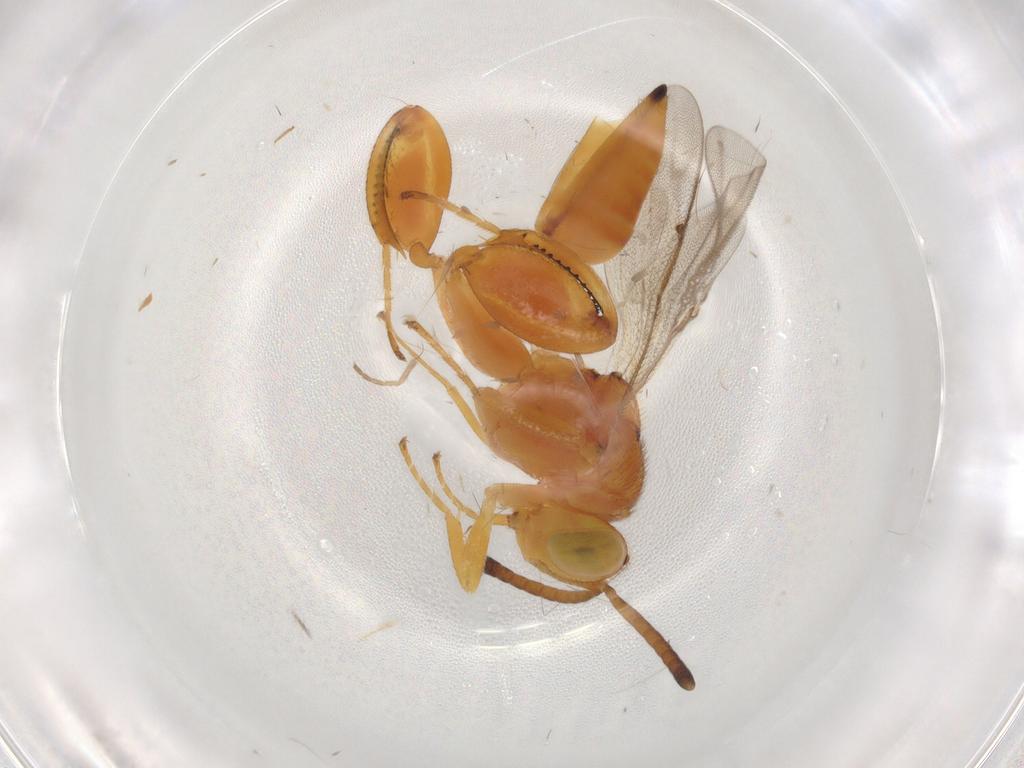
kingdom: Animalia
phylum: Arthropoda
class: Insecta
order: Hymenoptera
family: Chalcididae
